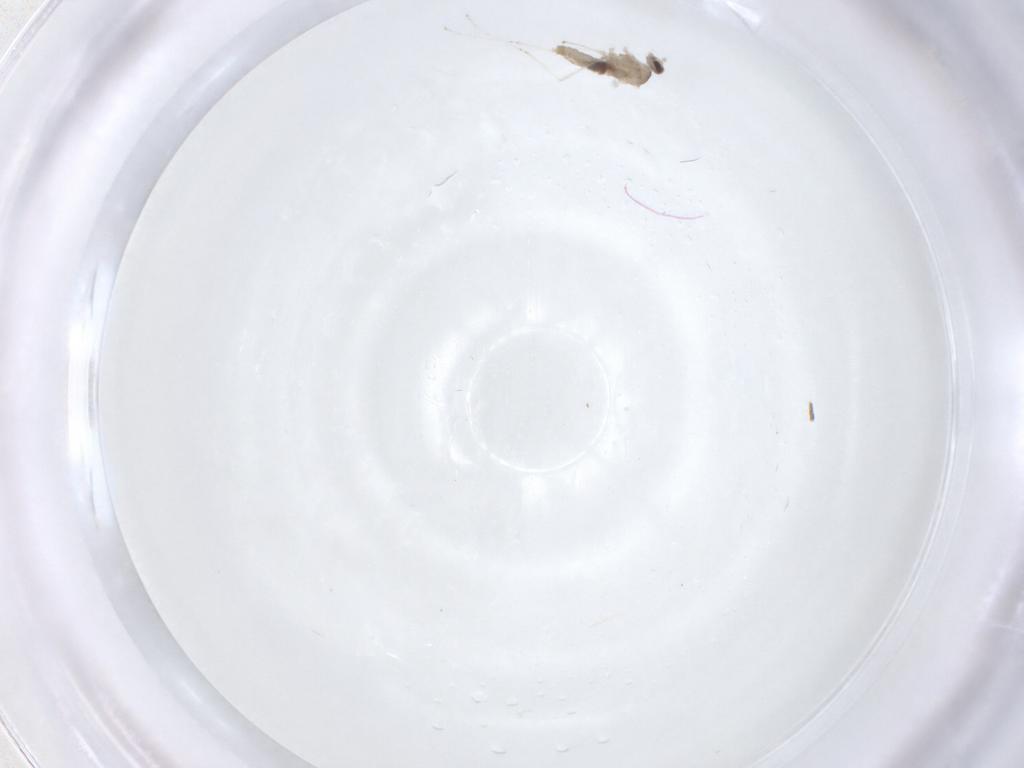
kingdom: Animalia
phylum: Arthropoda
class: Insecta
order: Diptera
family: Cecidomyiidae
